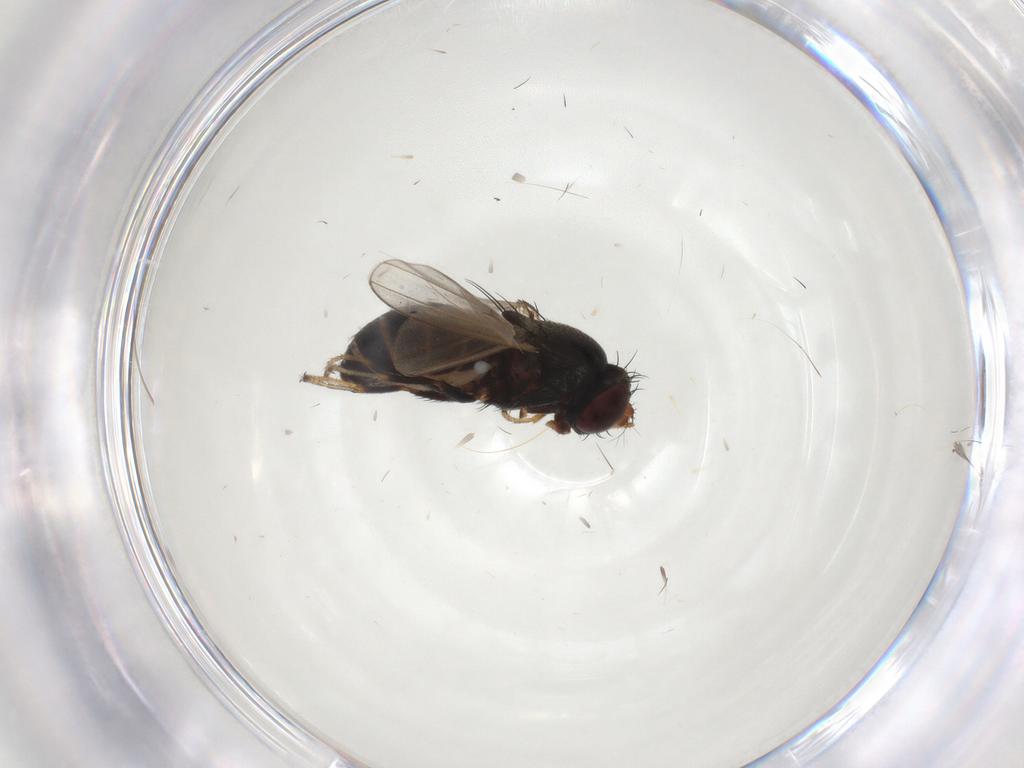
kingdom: Animalia
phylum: Arthropoda
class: Insecta
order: Diptera
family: Ephydridae
